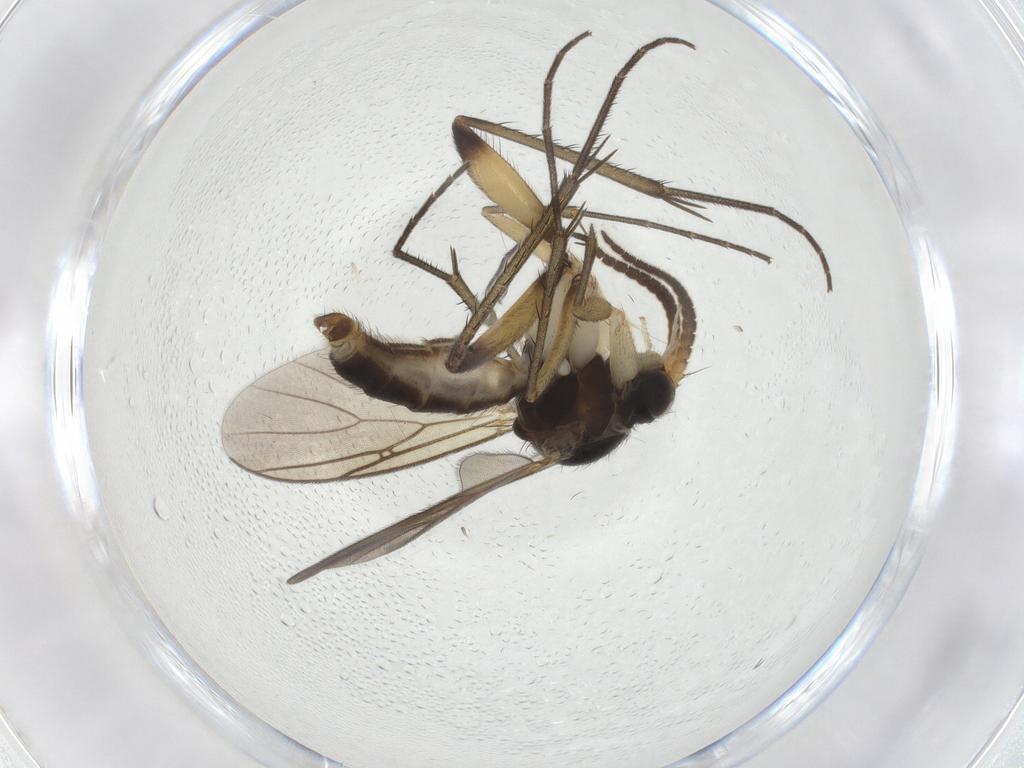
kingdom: Animalia
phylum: Arthropoda
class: Insecta
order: Diptera
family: Mycetophilidae
